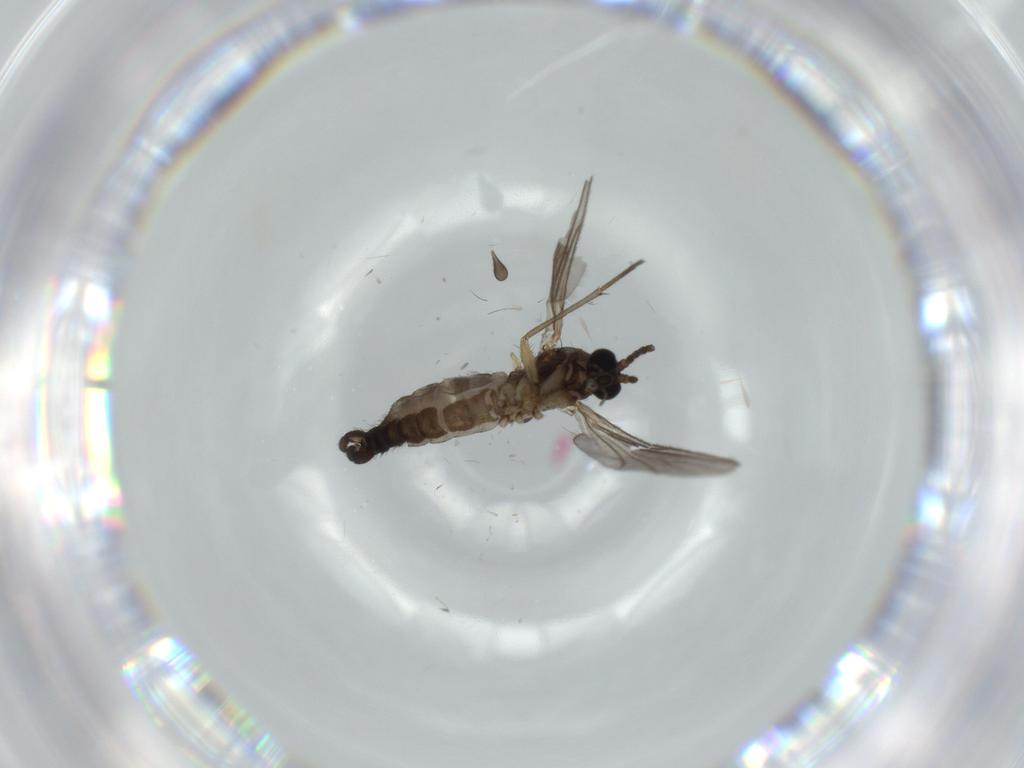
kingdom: Animalia
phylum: Arthropoda
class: Insecta
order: Diptera
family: Sciaridae
